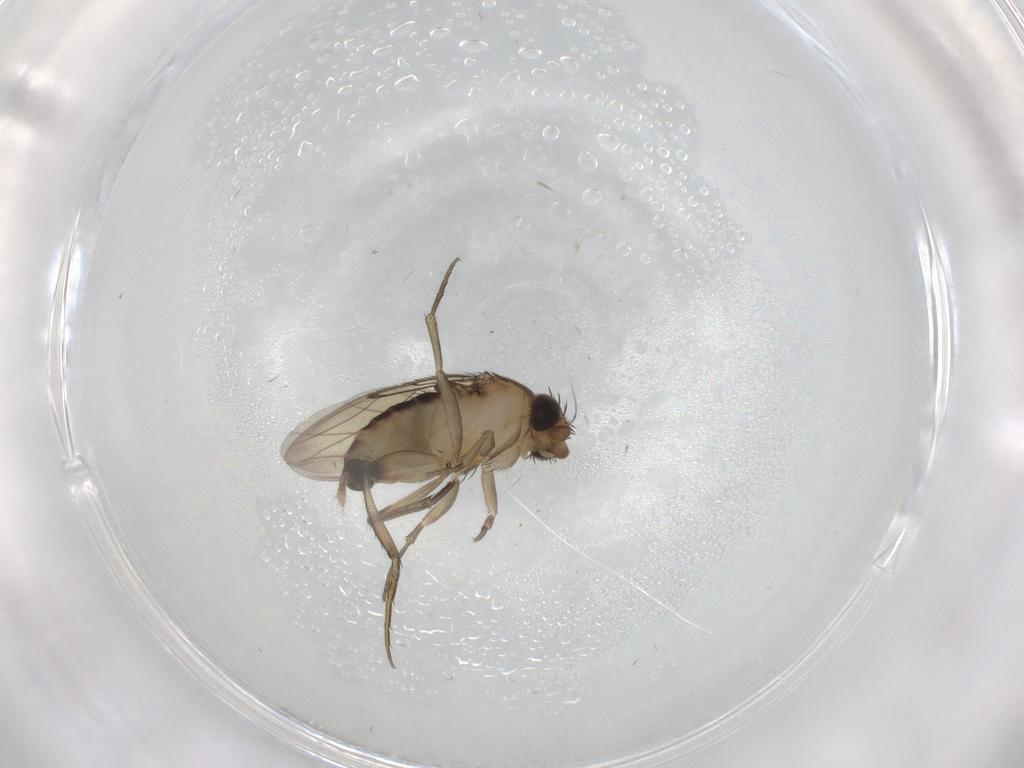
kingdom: Animalia
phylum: Arthropoda
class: Insecta
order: Diptera
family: Phoridae
